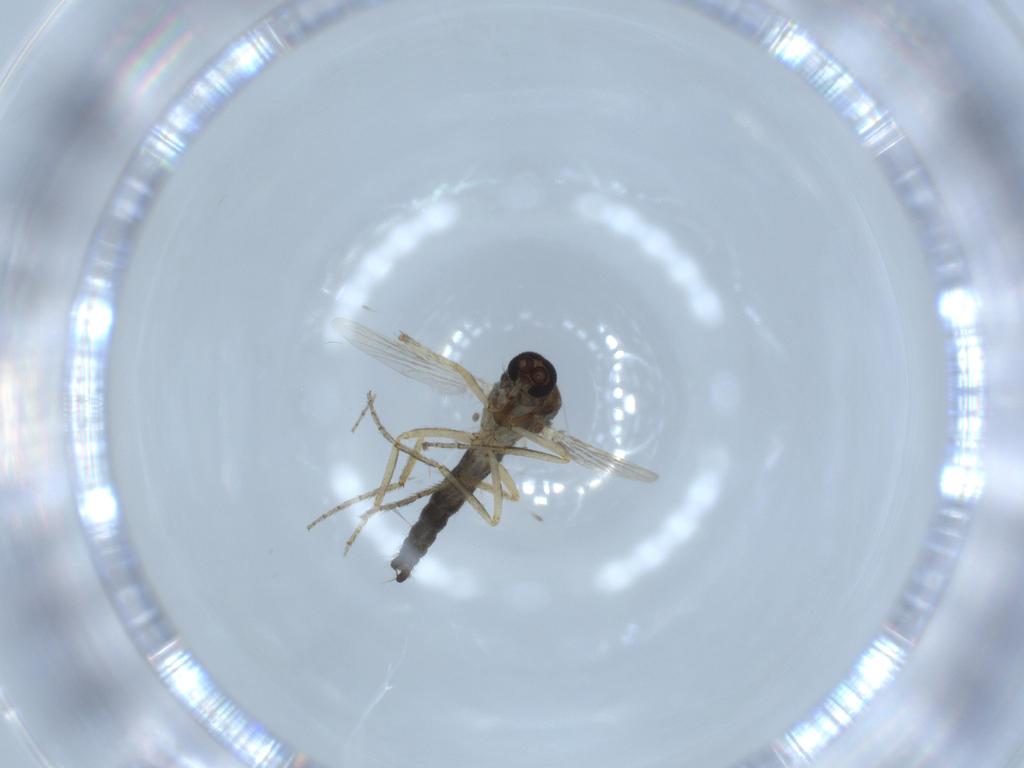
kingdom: Animalia
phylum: Arthropoda
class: Insecta
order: Diptera
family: Ceratopogonidae
